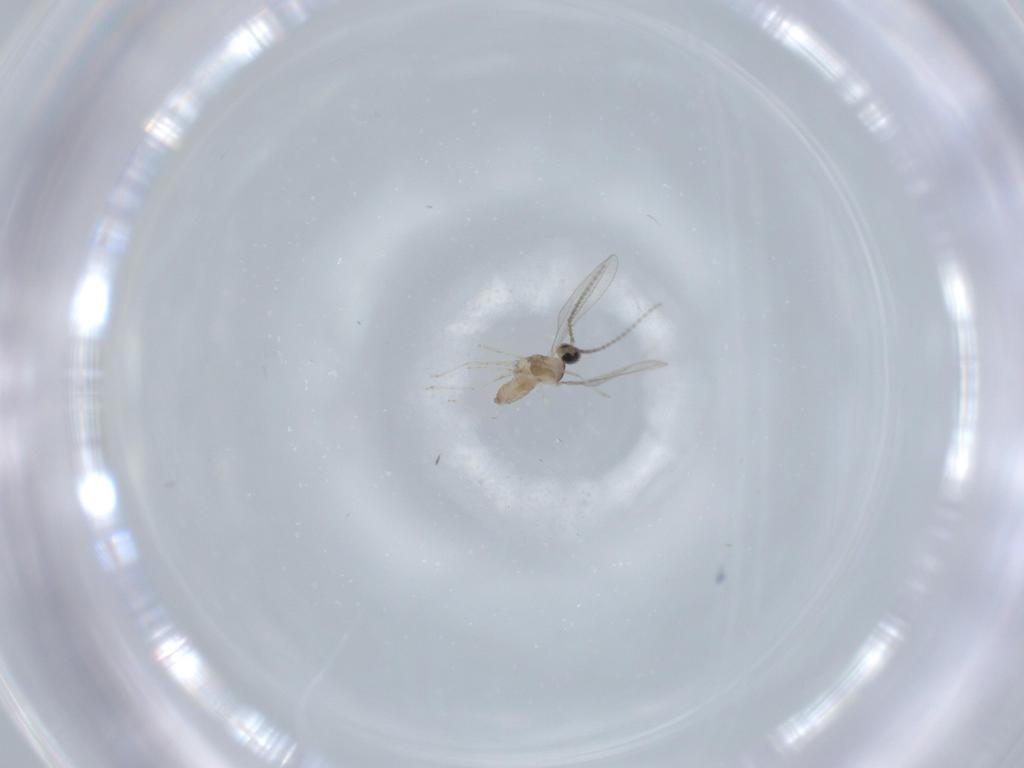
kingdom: Animalia
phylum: Arthropoda
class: Insecta
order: Diptera
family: Cecidomyiidae
